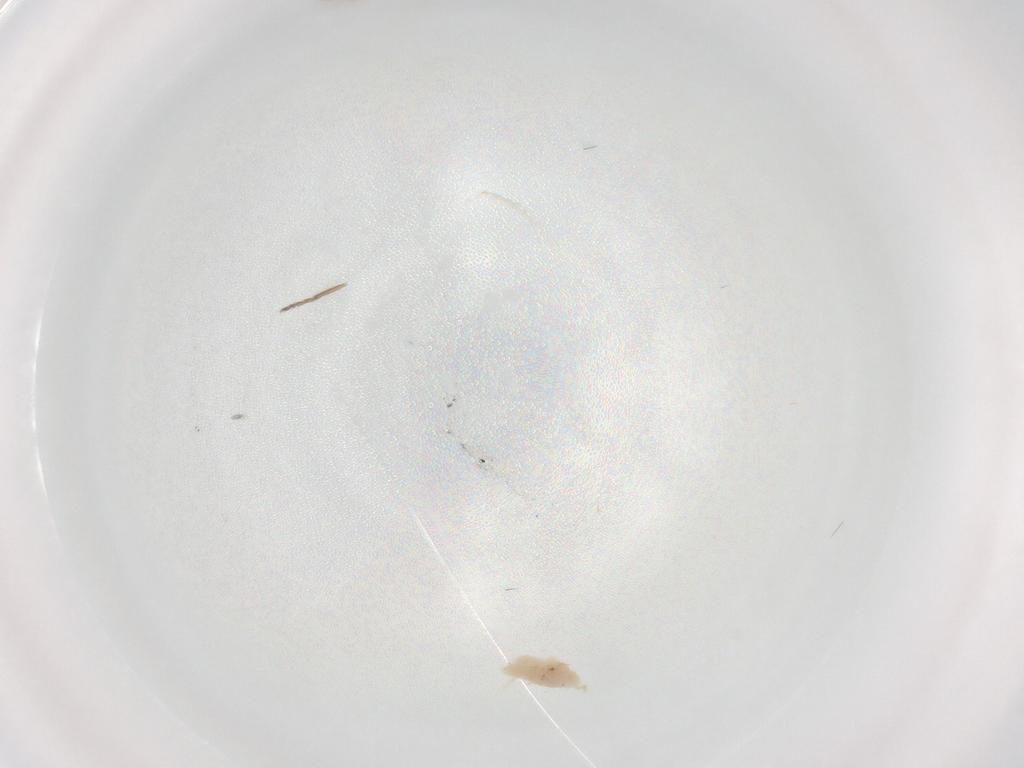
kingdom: Animalia
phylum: Arthropoda
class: Insecta
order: Diptera
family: Ceratopogonidae
